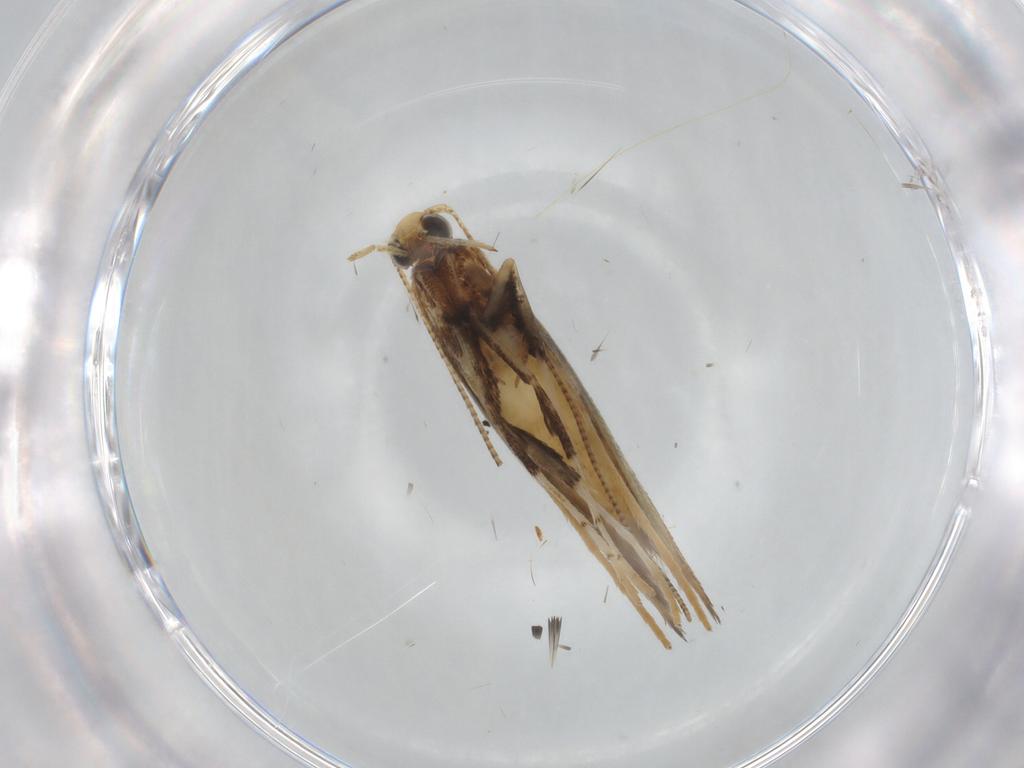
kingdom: Animalia
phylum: Arthropoda
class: Insecta
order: Lepidoptera
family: Gracillariidae
